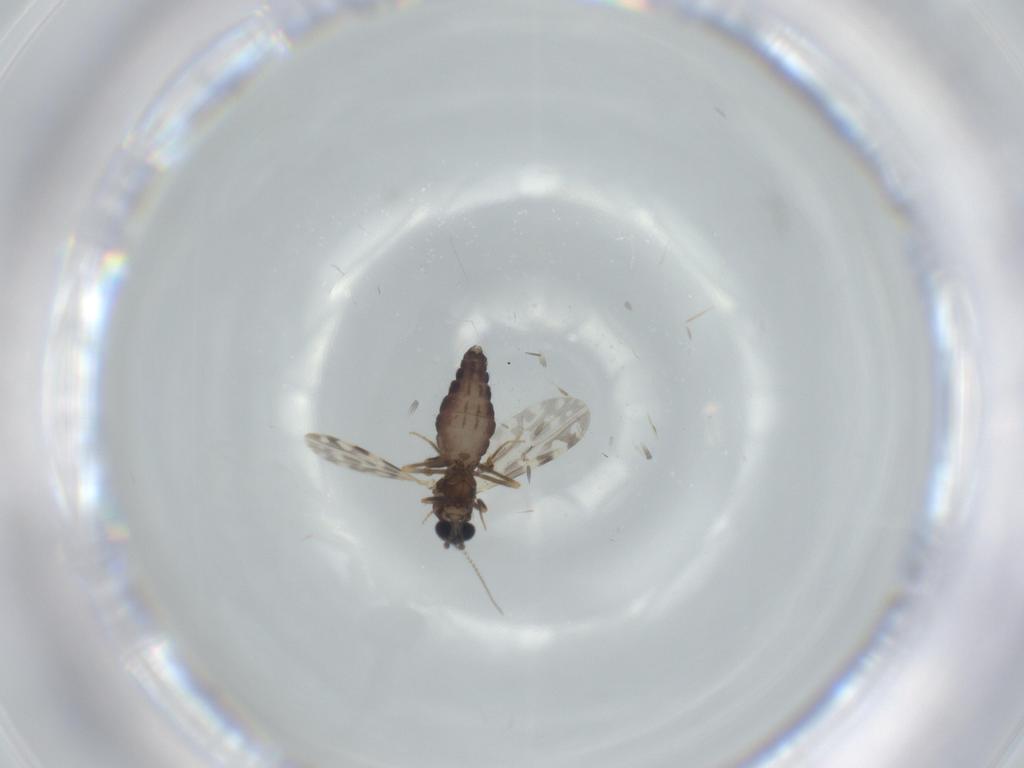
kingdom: Animalia
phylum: Arthropoda
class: Insecta
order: Diptera
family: Ceratopogonidae
